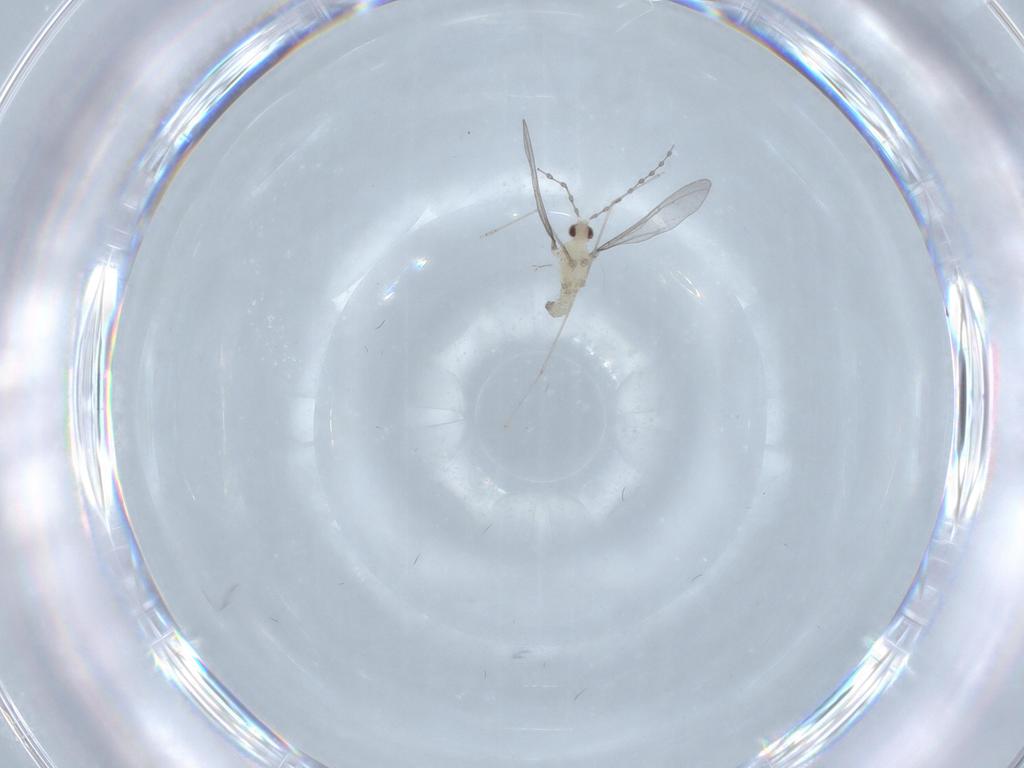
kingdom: Animalia
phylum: Arthropoda
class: Insecta
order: Diptera
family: Cecidomyiidae
